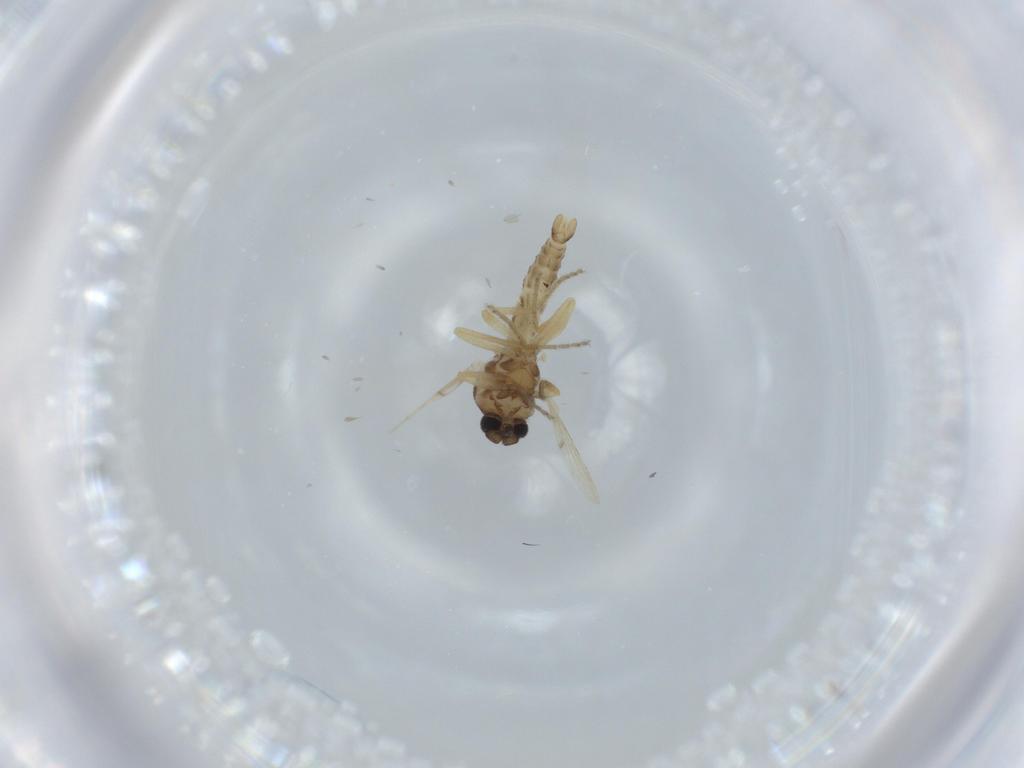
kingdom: Animalia
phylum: Arthropoda
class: Insecta
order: Diptera
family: Ceratopogonidae
